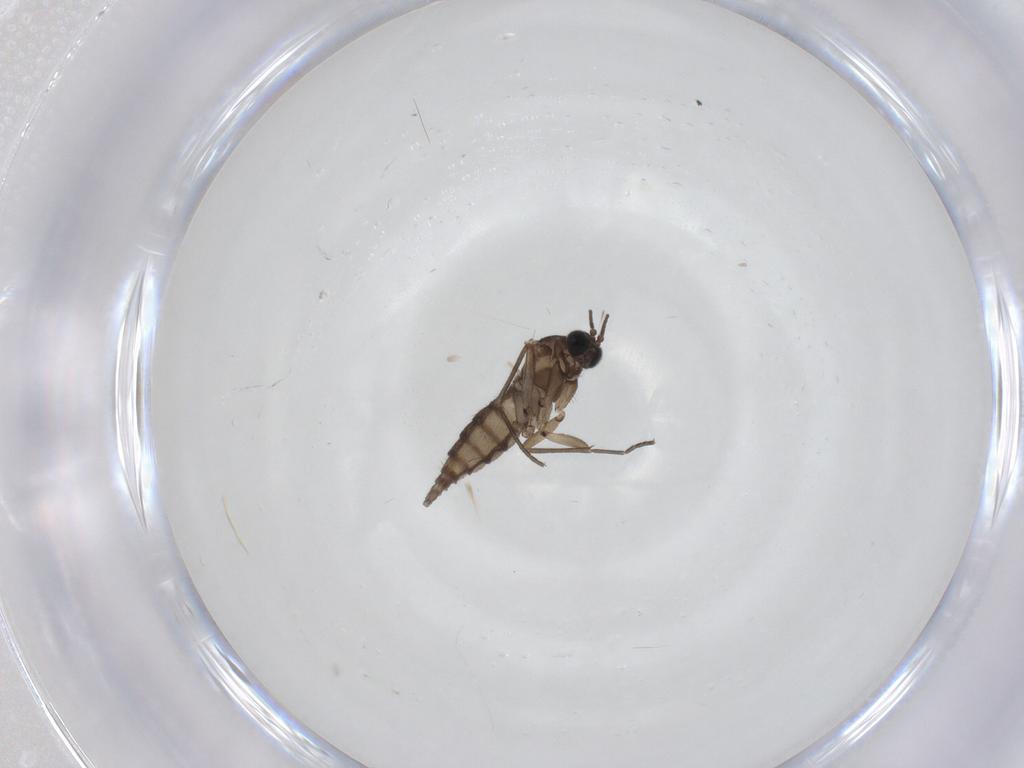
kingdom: Animalia
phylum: Arthropoda
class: Insecta
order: Diptera
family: Sciaridae
